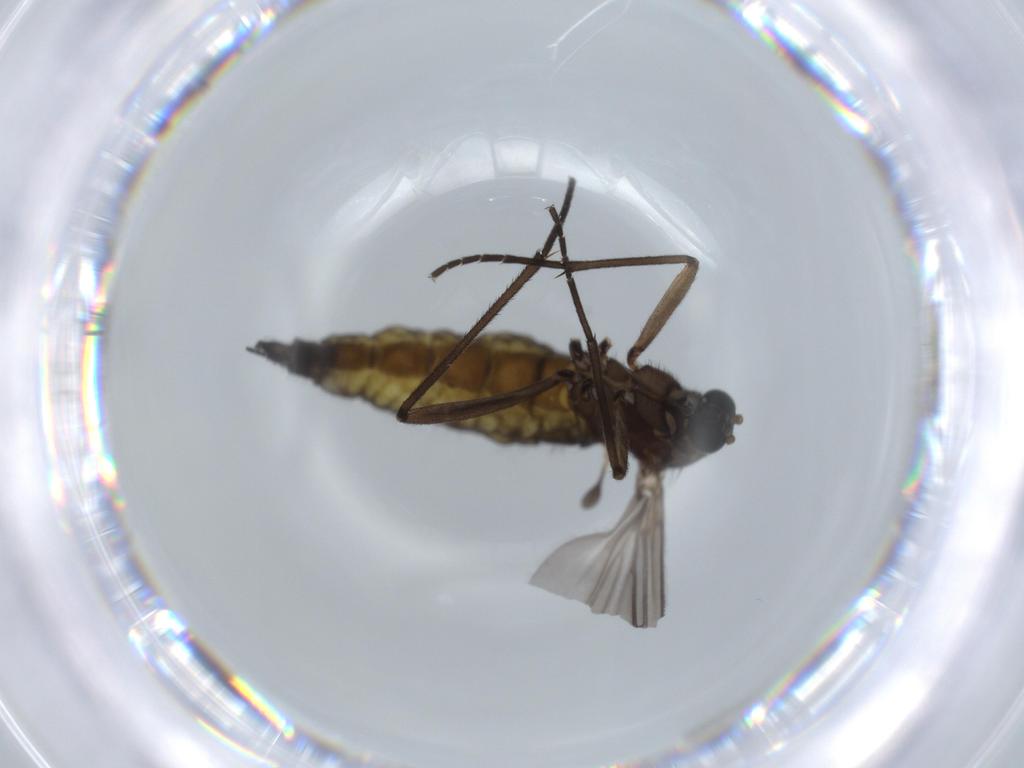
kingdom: Animalia
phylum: Arthropoda
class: Insecta
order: Diptera
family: Sciaridae
